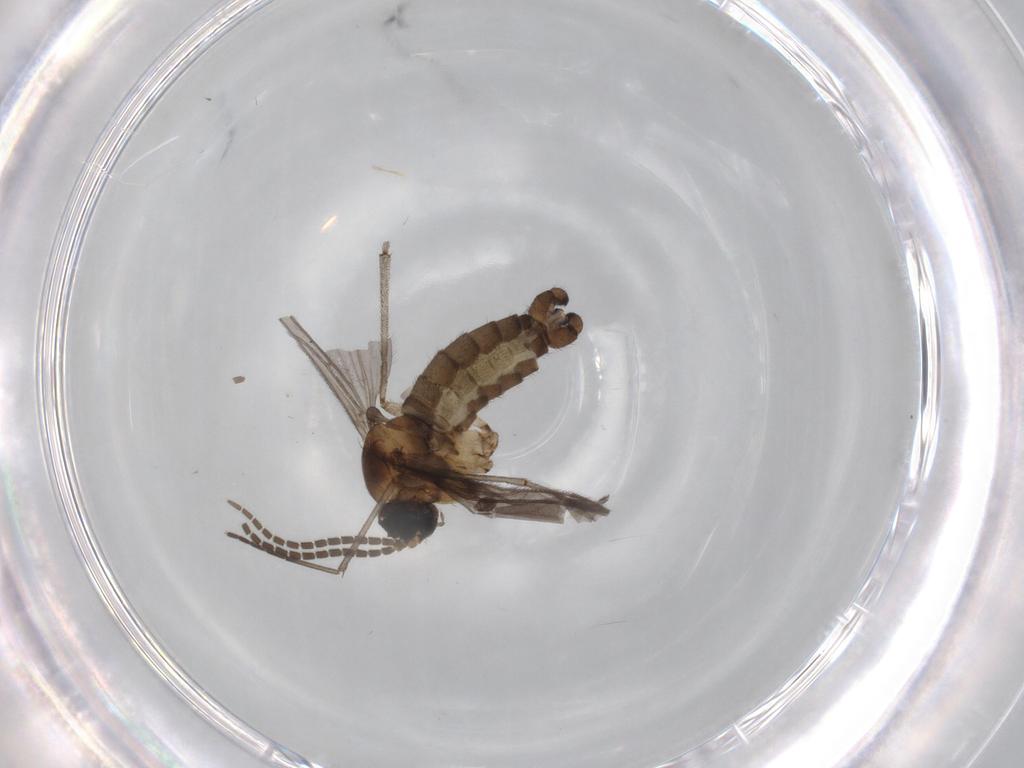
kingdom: Animalia
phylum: Arthropoda
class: Insecta
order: Diptera
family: Sciaridae
